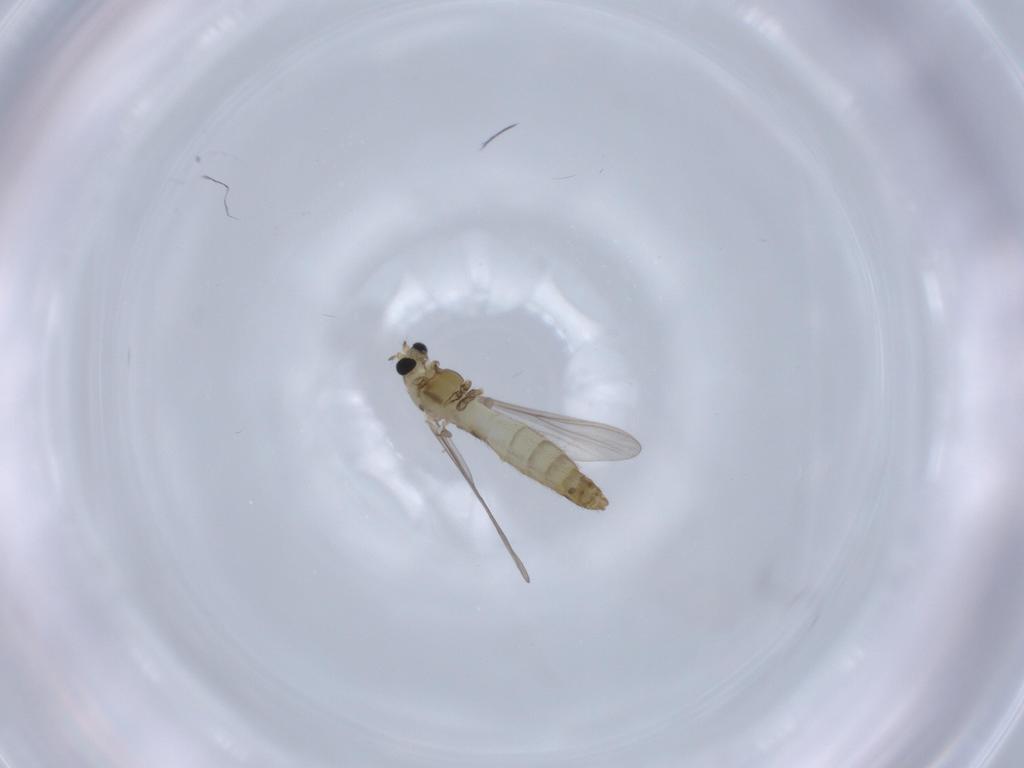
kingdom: Animalia
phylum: Arthropoda
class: Insecta
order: Diptera
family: Chironomidae
